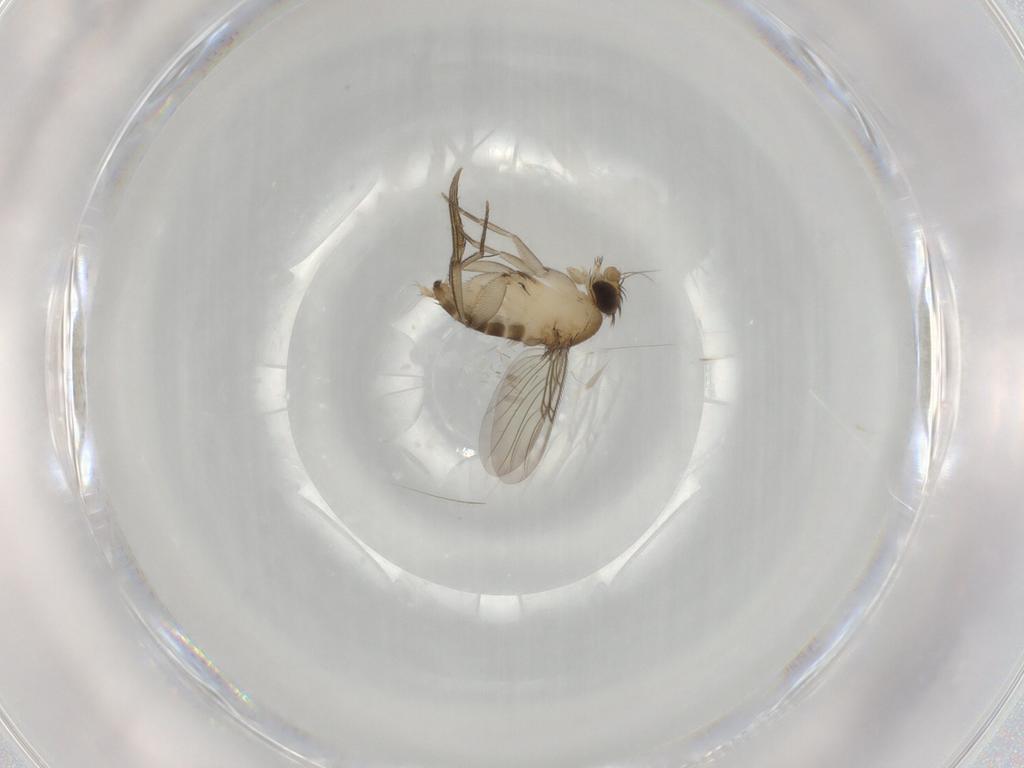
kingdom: Animalia
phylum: Arthropoda
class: Insecta
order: Diptera
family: Phoridae
